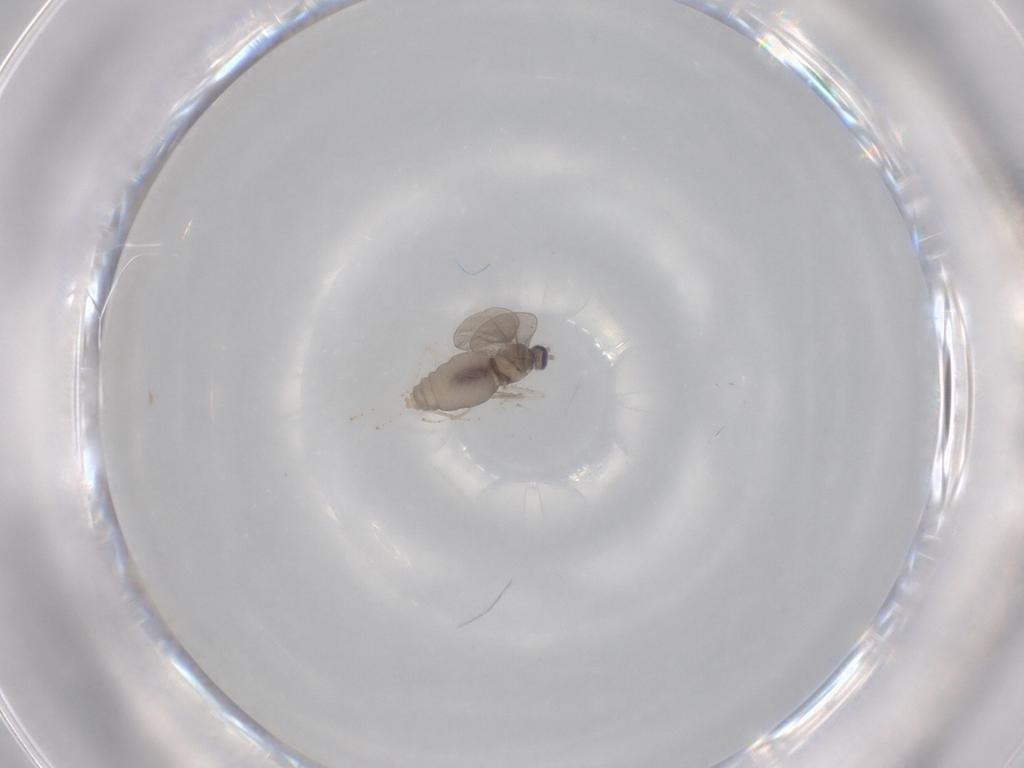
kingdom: Animalia
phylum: Arthropoda
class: Insecta
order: Diptera
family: Cecidomyiidae
